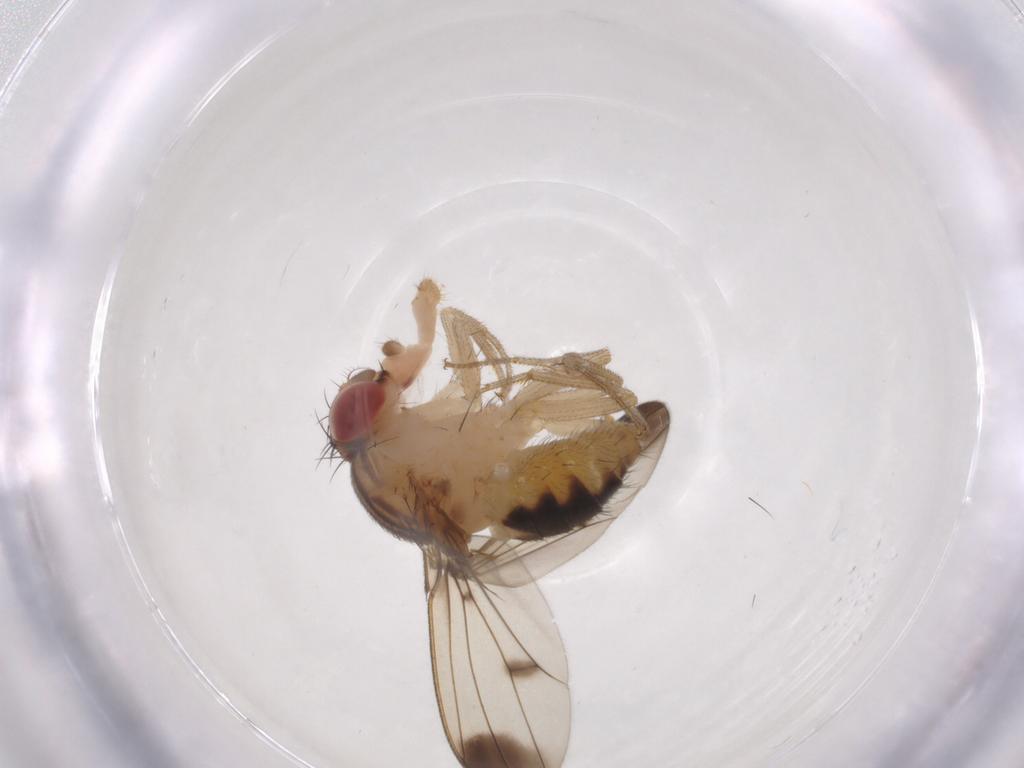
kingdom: Animalia
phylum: Arthropoda
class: Insecta
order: Diptera
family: Drosophilidae
